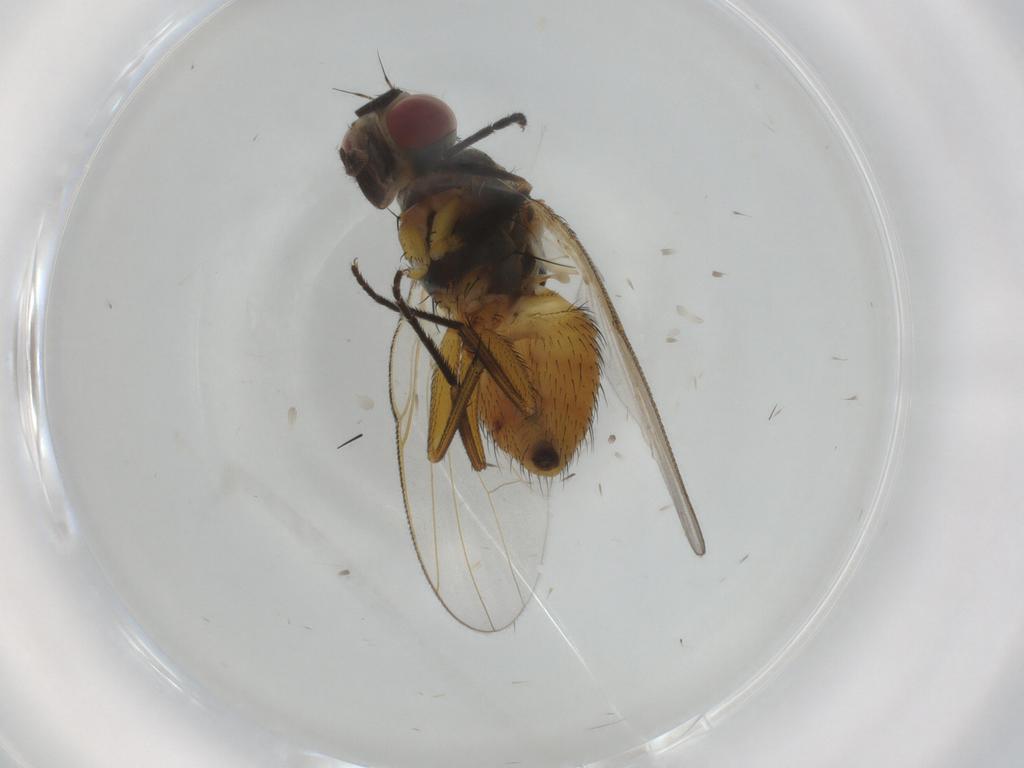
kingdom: Animalia
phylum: Arthropoda
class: Insecta
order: Diptera
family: Muscidae
